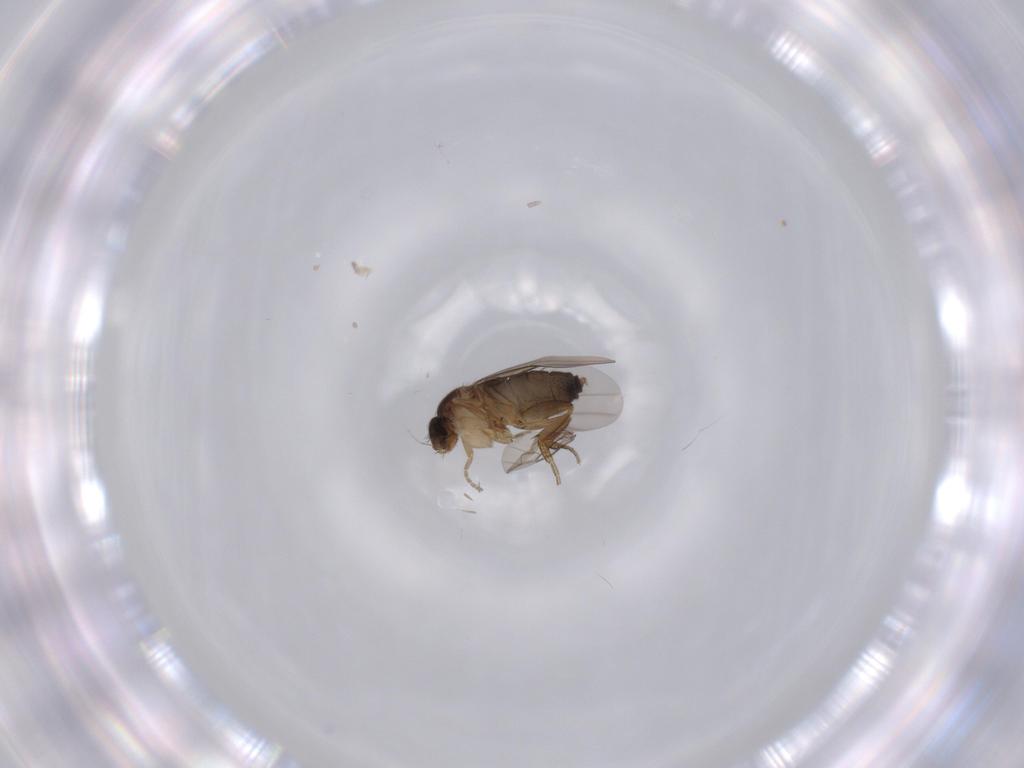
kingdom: Animalia
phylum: Arthropoda
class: Insecta
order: Diptera
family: Phoridae
